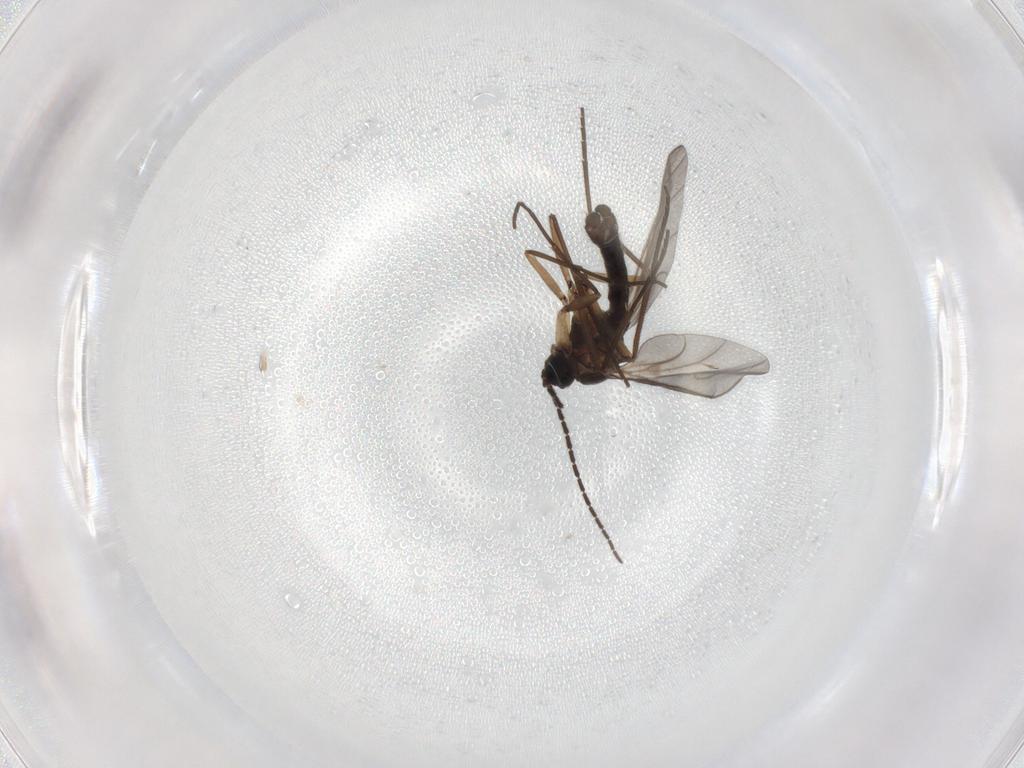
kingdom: Animalia
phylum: Arthropoda
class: Insecta
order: Diptera
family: Sciaridae
